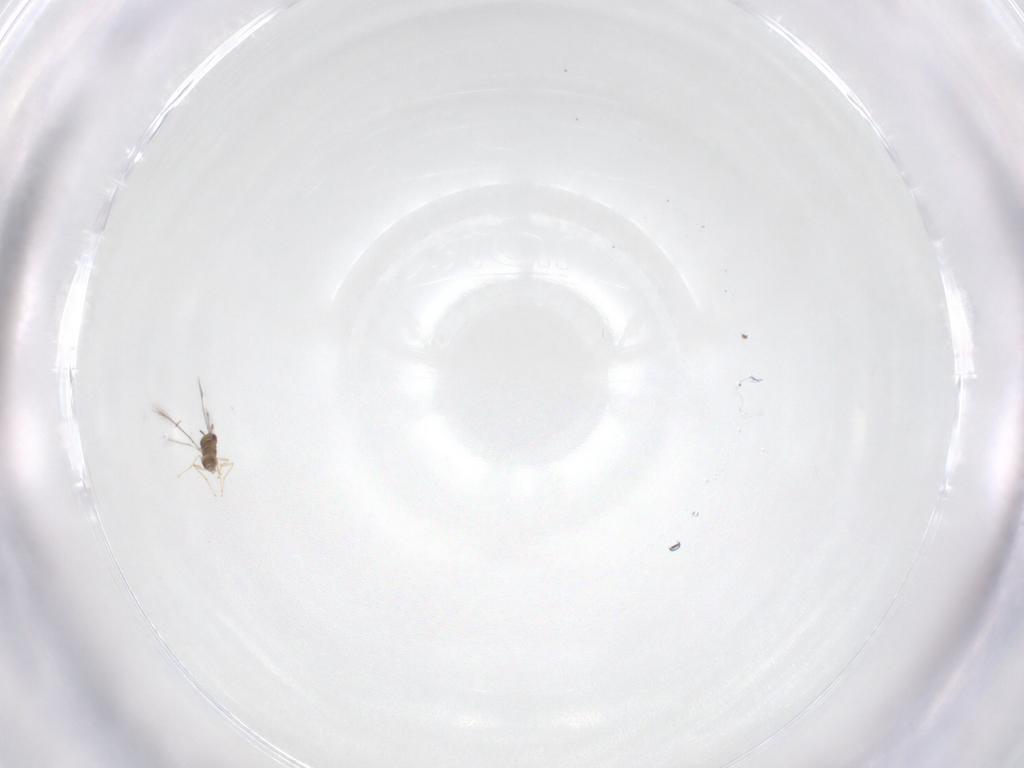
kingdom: Animalia
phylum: Arthropoda
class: Insecta
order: Hymenoptera
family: Mymaridae
